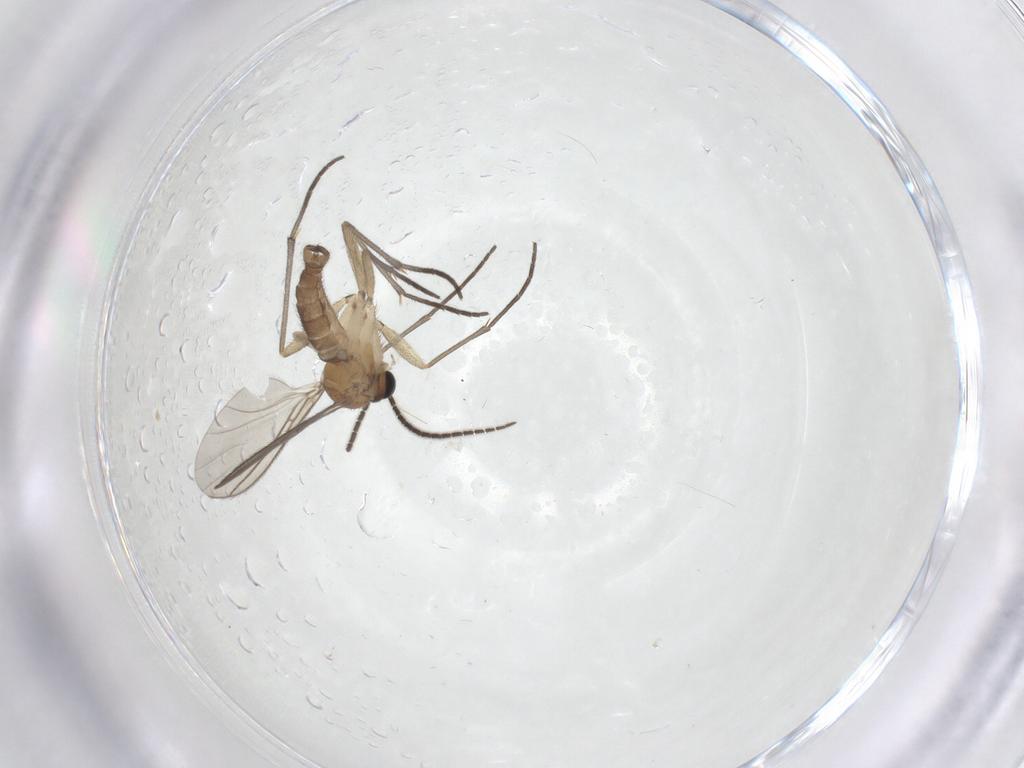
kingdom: Animalia
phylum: Arthropoda
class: Insecta
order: Diptera
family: Sciaridae
